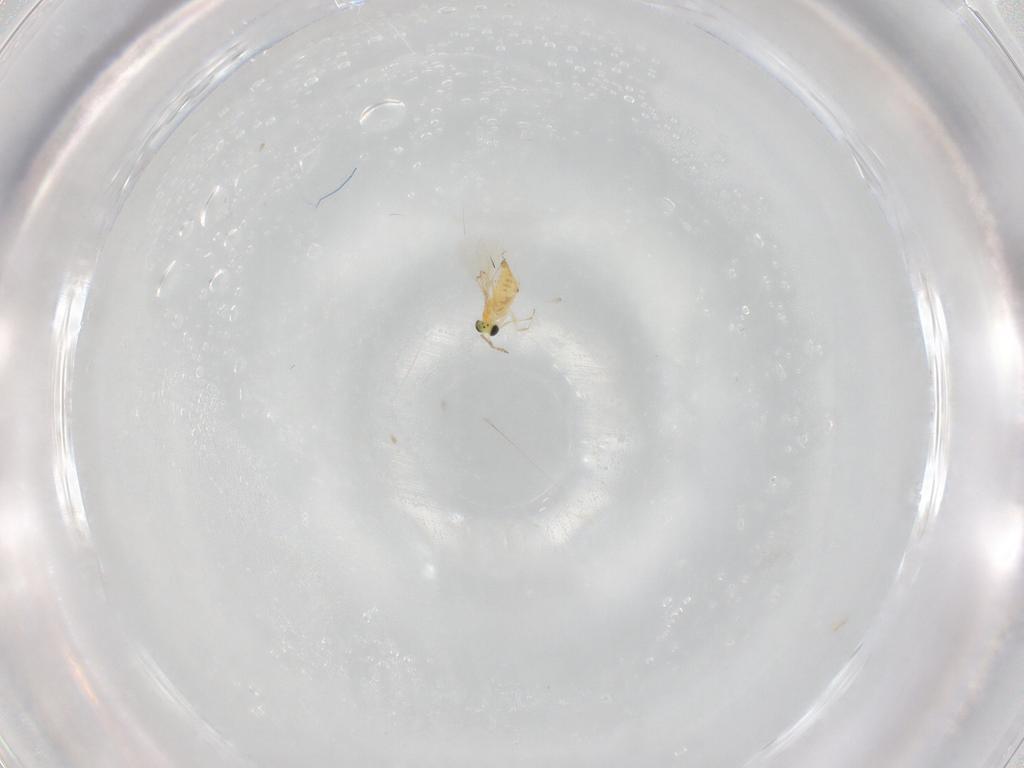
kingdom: Animalia
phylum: Arthropoda
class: Insecta
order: Hymenoptera
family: Trichogrammatidae
